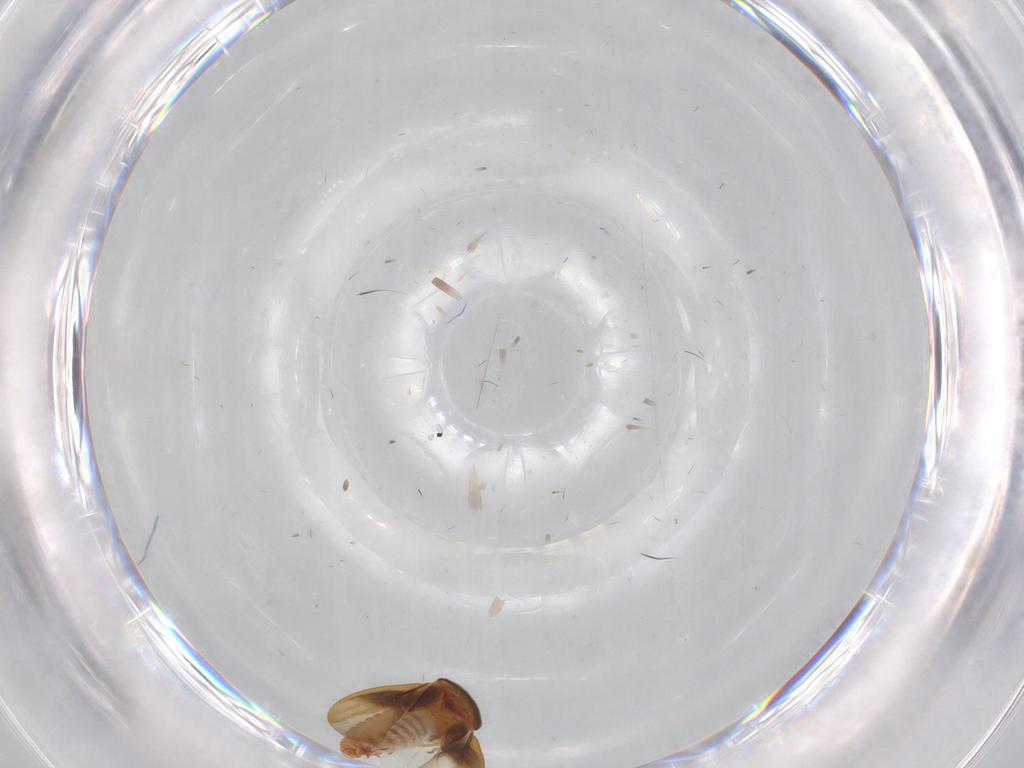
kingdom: Animalia
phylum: Arthropoda
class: Insecta
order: Hemiptera
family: Schizopteridae
